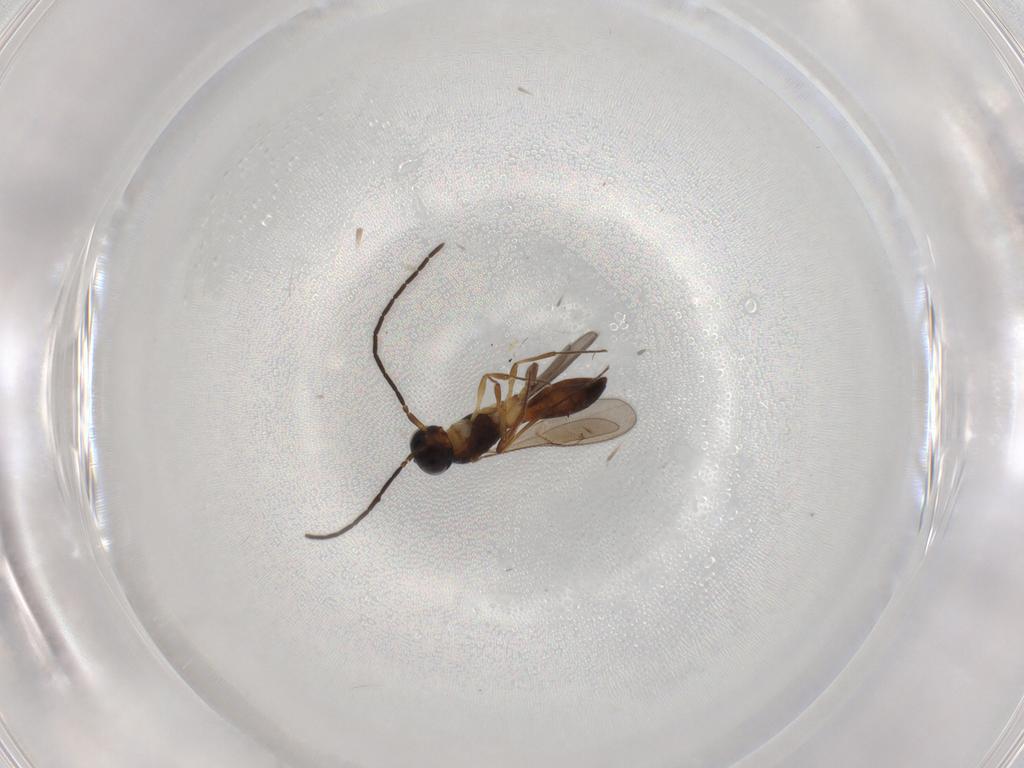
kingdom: Animalia
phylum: Arthropoda
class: Insecta
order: Hymenoptera
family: Scelionidae
